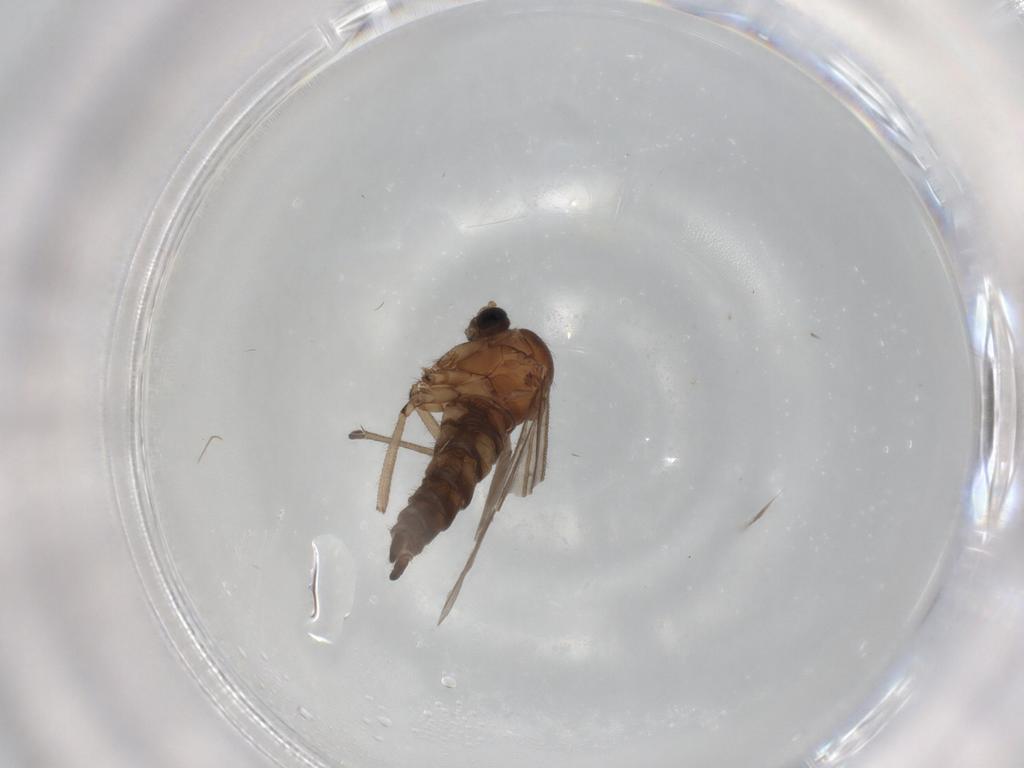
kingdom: Animalia
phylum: Arthropoda
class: Insecta
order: Diptera
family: Sciaridae
